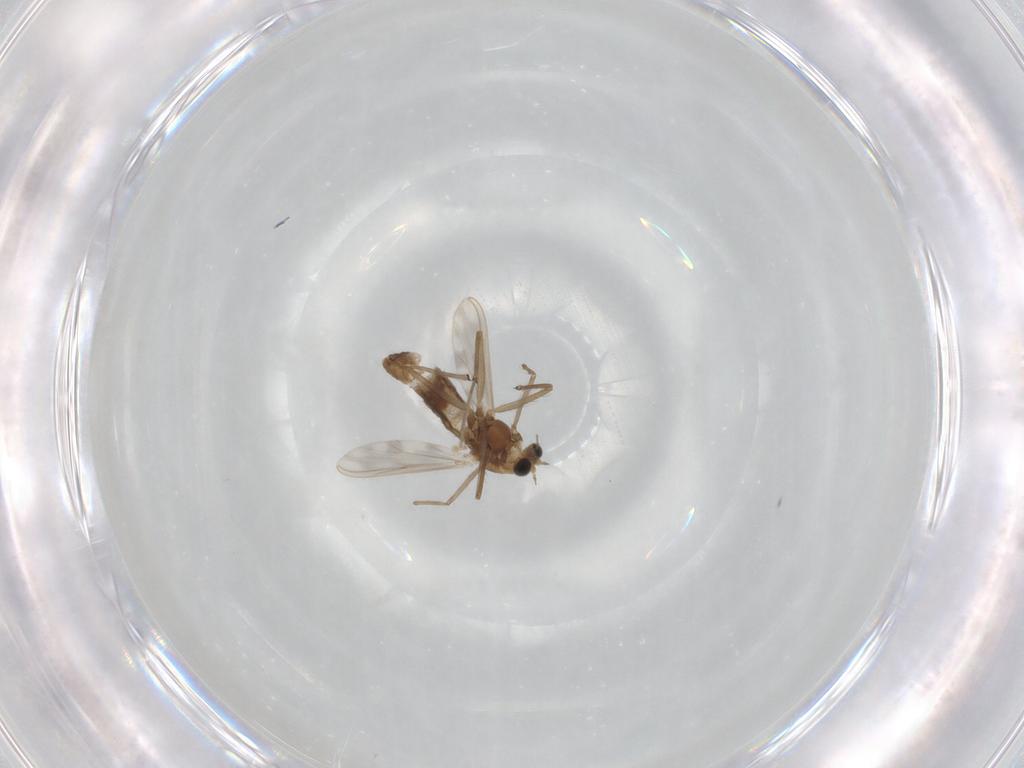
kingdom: Animalia
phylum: Arthropoda
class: Insecta
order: Diptera
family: Chironomidae
